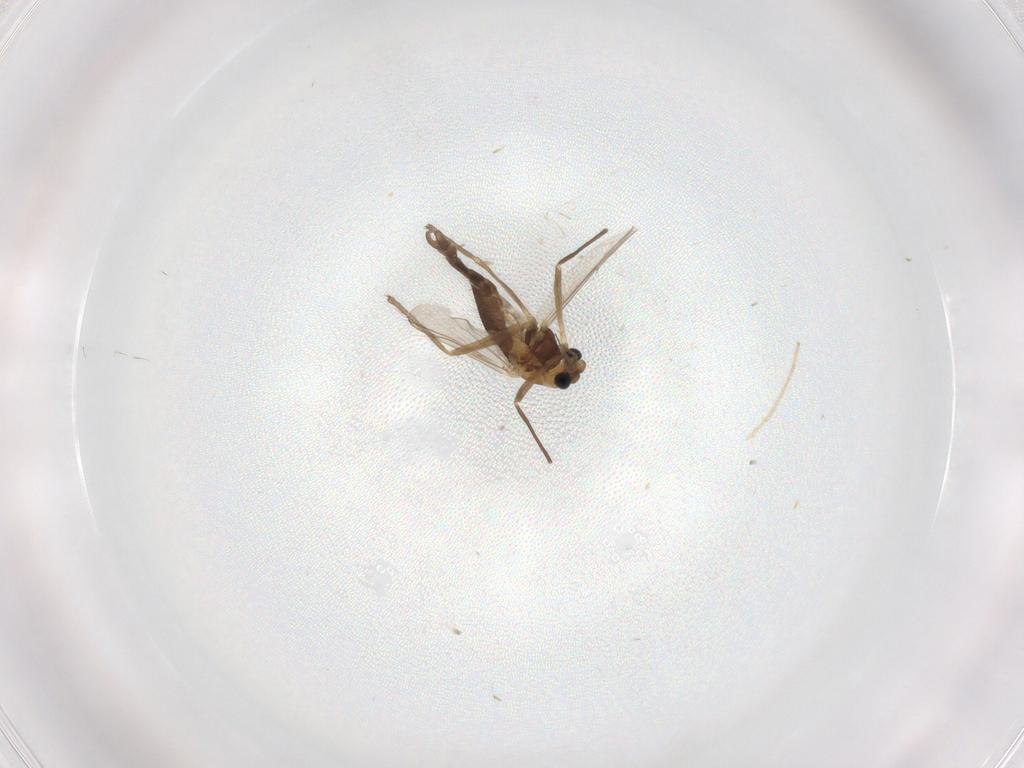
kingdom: Animalia
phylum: Arthropoda
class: Insecta
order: Diptera
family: Chironomidae
